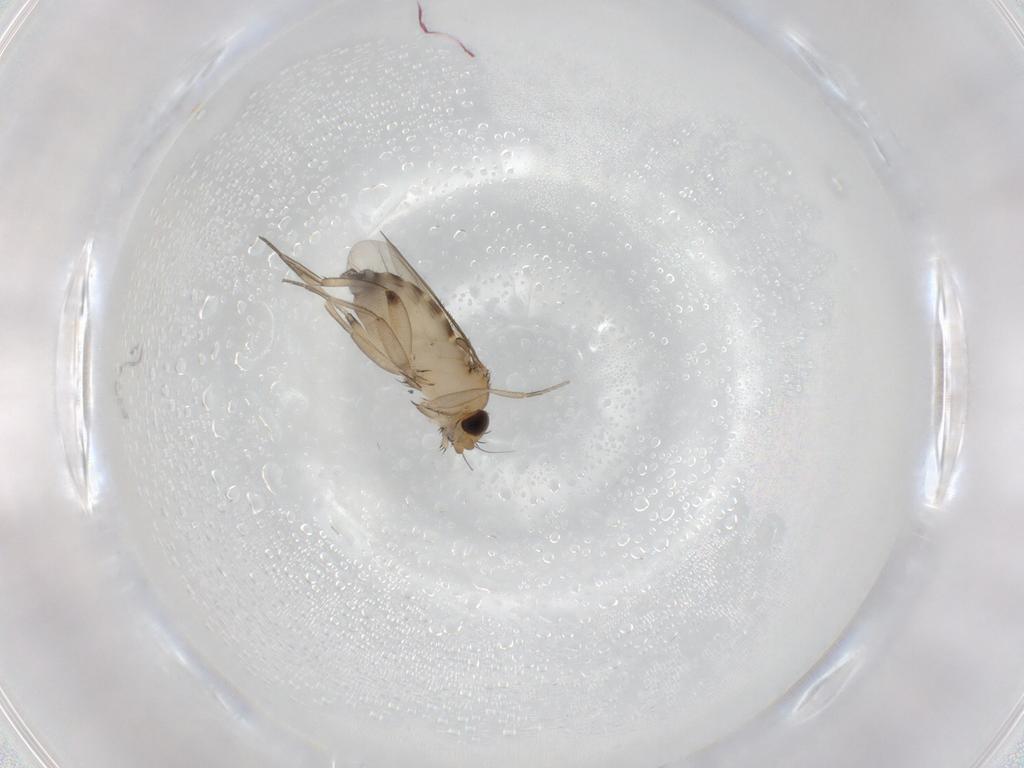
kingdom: Animalia
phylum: Arthropoda
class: Insecta
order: Diptera
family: Phoridae
